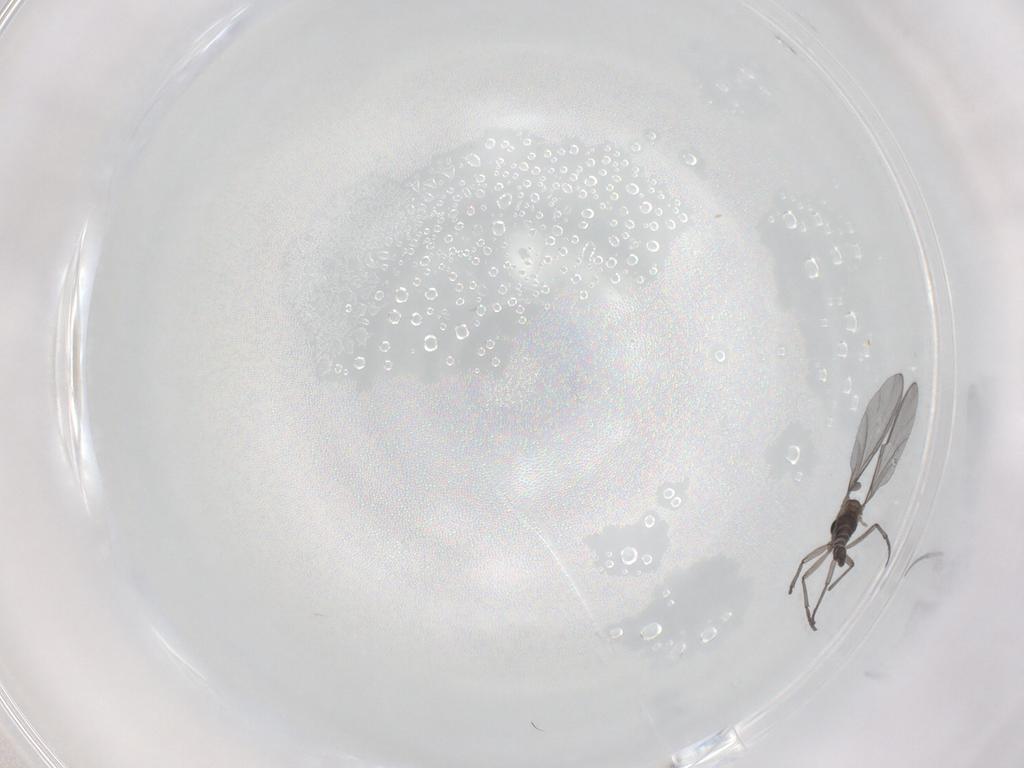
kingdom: Animalia
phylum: Arthropoda
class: Insecta
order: Diptera
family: Sciaridae
